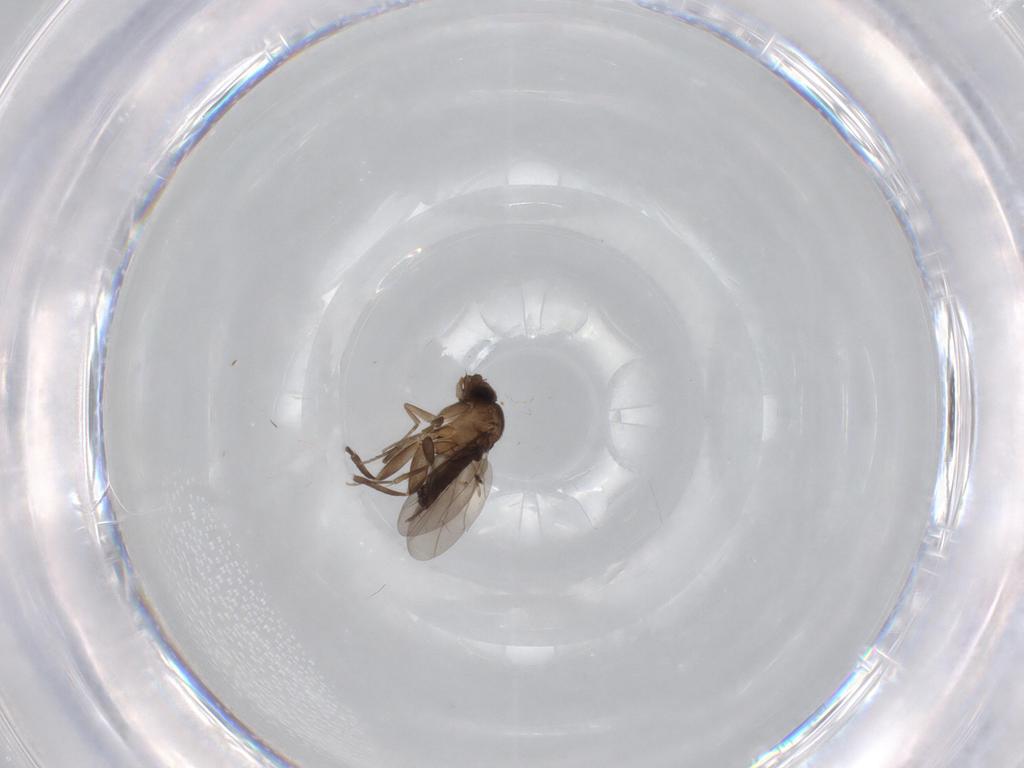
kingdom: Animalia
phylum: Arthropoda
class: Insecta
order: Diptera
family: Phoridae
